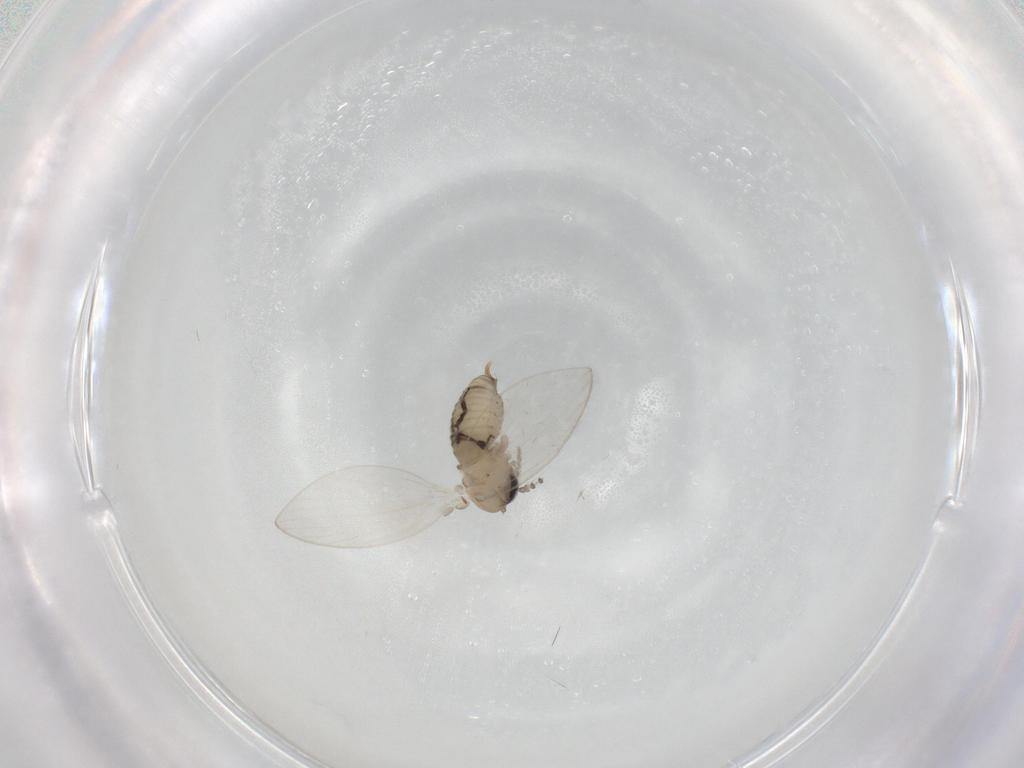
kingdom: Animalia
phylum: Arthropoda
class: Insecta
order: Diptera
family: Psychodidae
